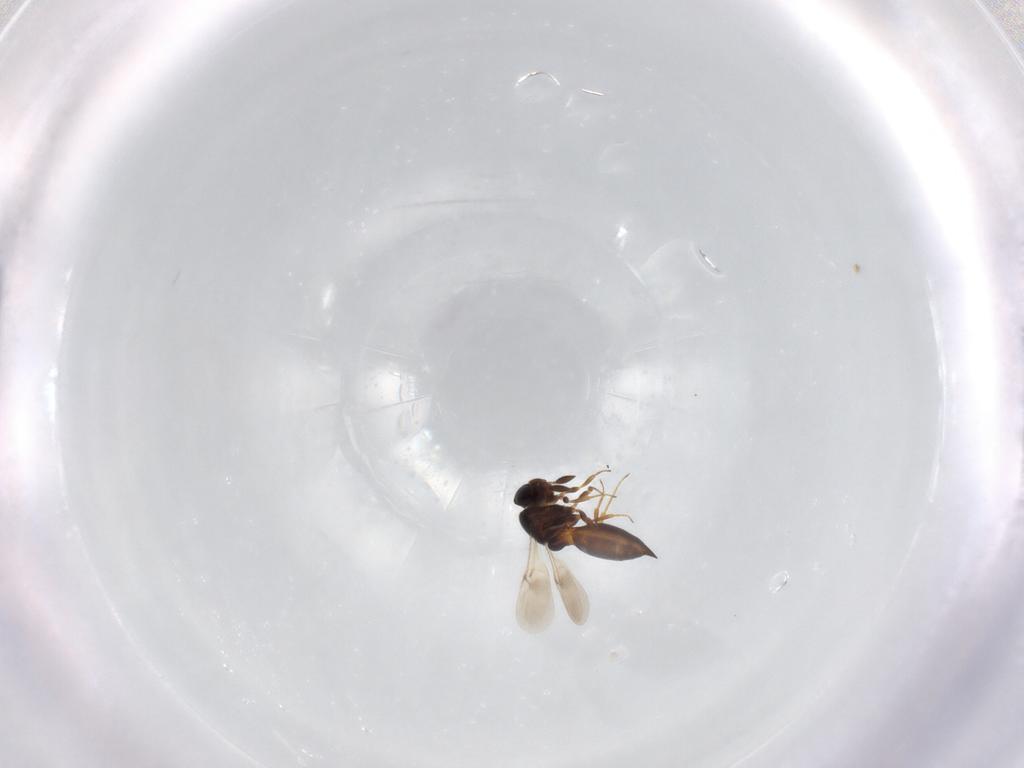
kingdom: Animalia
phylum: Arthropoda
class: Insecta
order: Hymenoptera
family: Scelionidae
